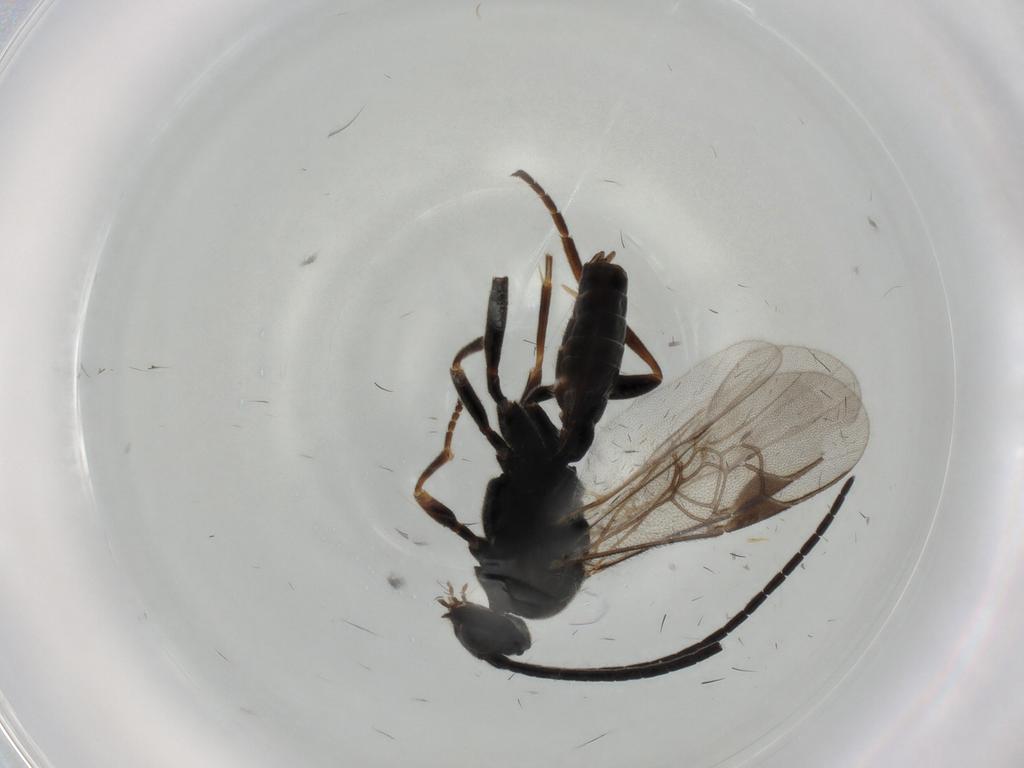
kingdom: Animalia
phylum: Arthropoda
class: Insecta
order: Hymenoptera
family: Braconidae
